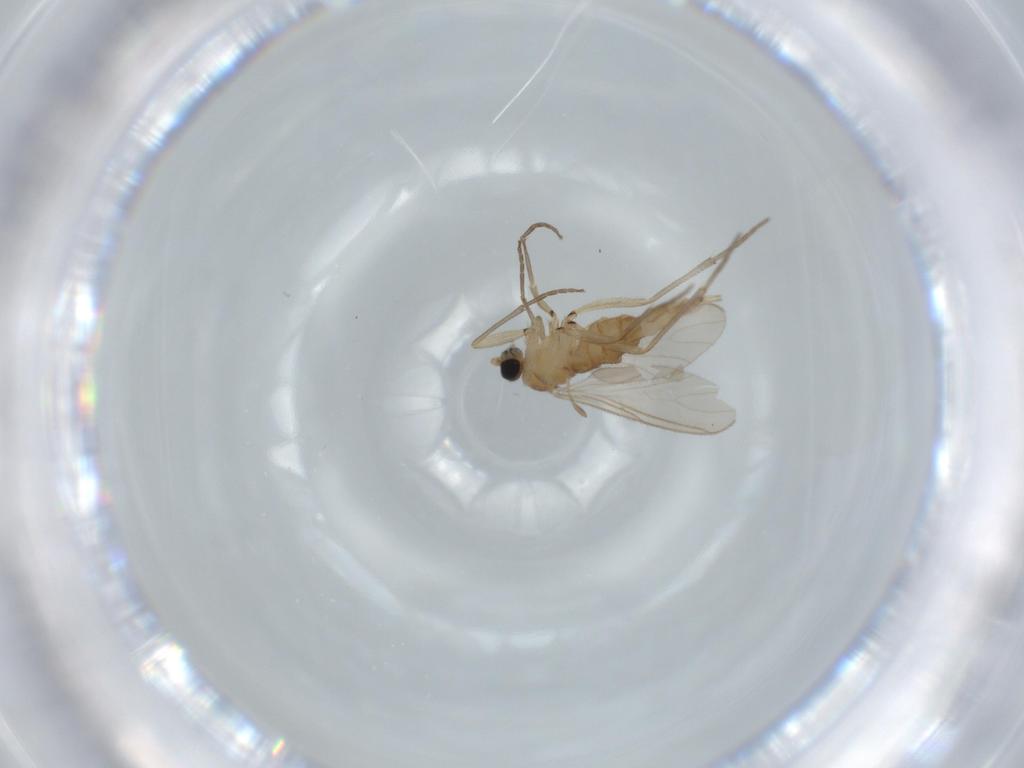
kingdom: Animalia
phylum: Arthropoda
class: Insecta
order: Diptera
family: Sciaridae
